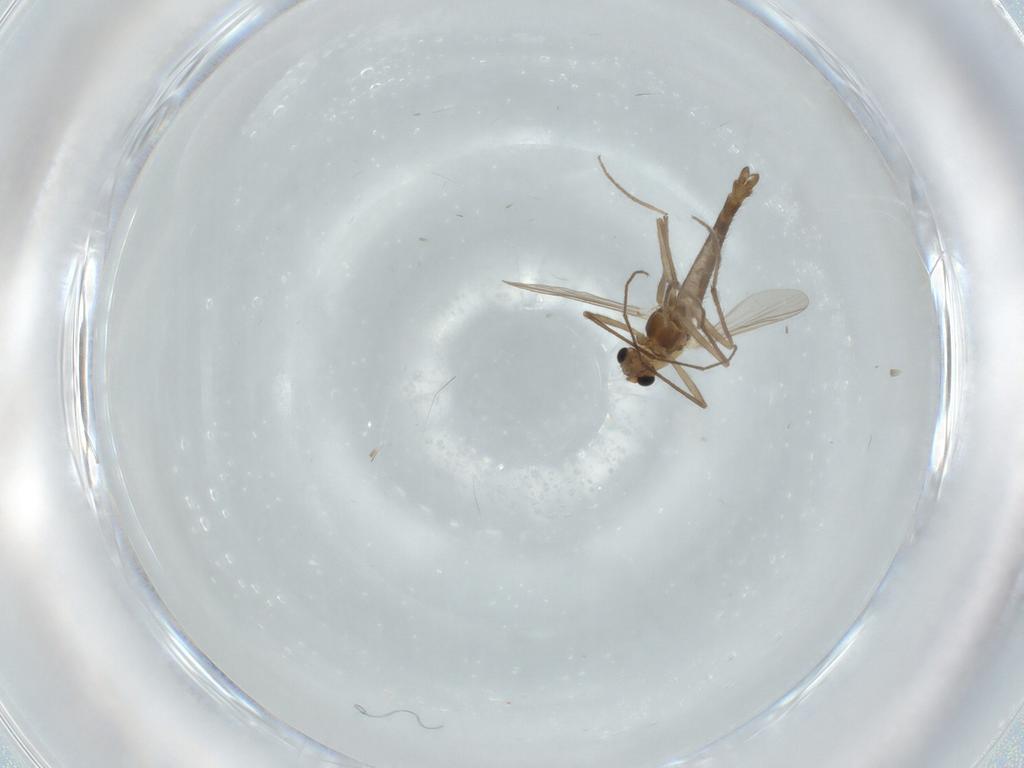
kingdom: Animalia
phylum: Arthropoda
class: Insecta
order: Diptera
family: Chironomidae
